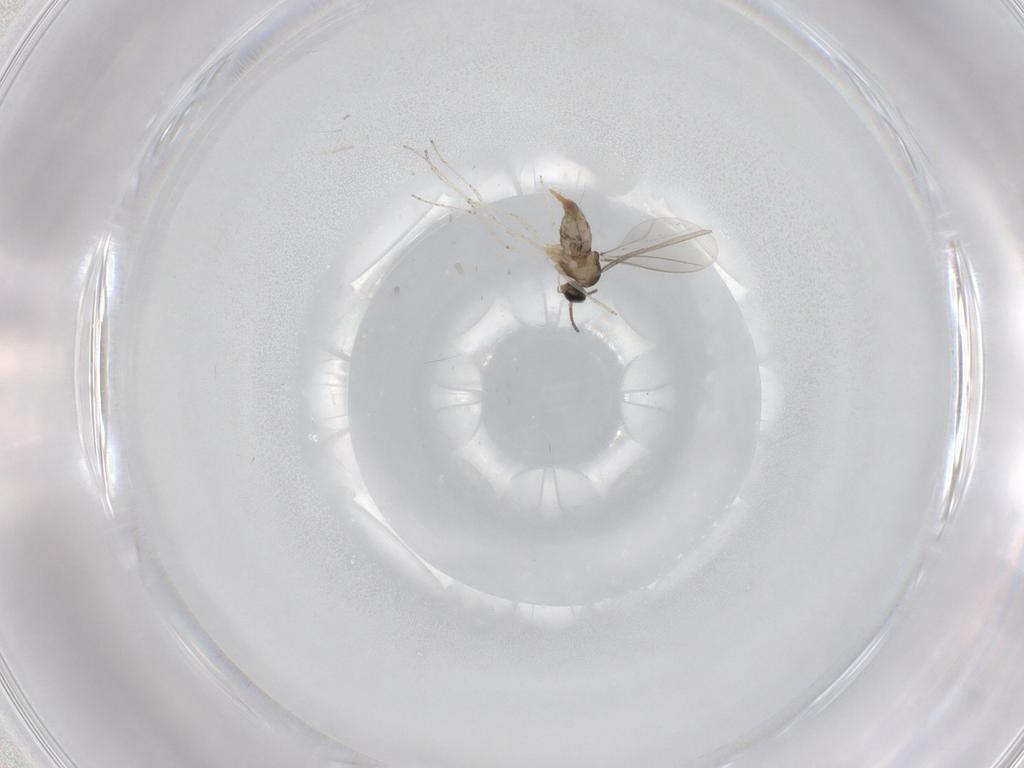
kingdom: Animalia
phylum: Arthropoda
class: Insecta
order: Diptera
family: Cecidomyiidae
